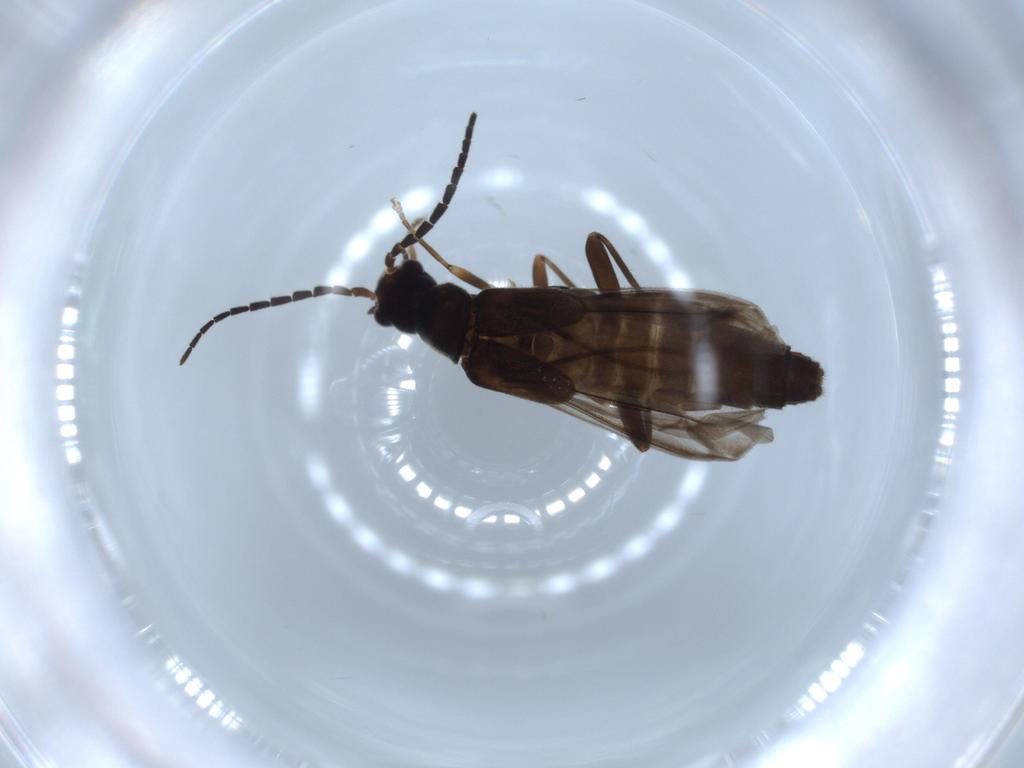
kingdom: Animalia
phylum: Arthropoda
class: Insecta
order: Coleoptera
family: Cantharidae
